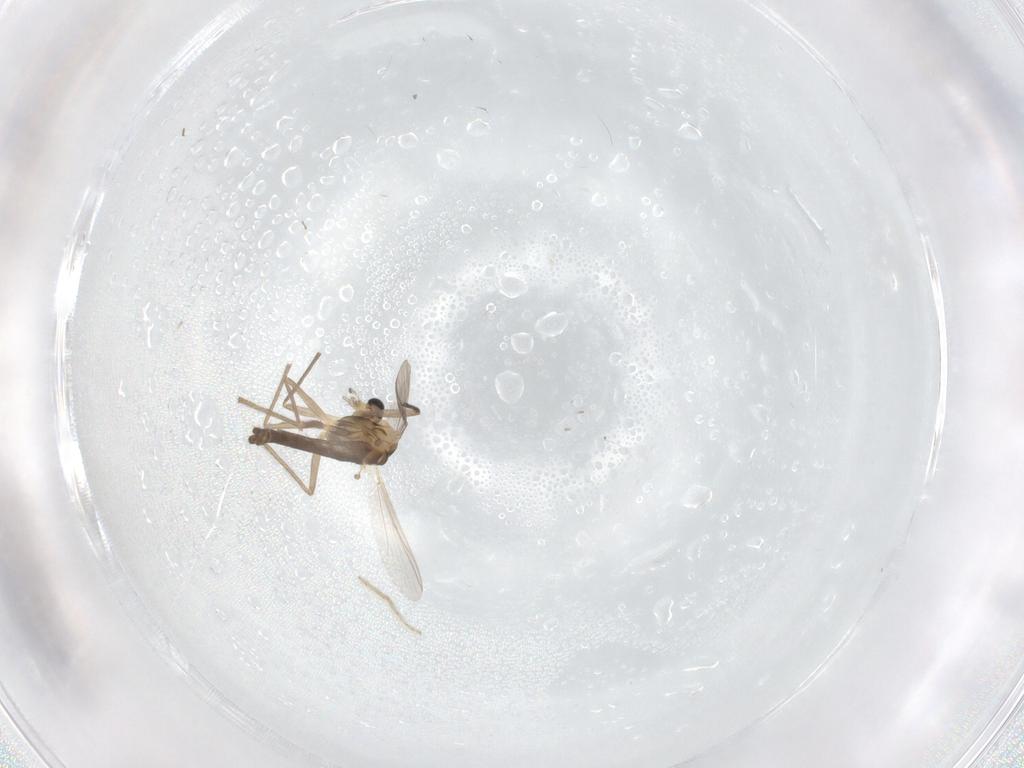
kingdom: Animalia
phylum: Arthropoda
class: Insecta
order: Diptera
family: Chironomidae
